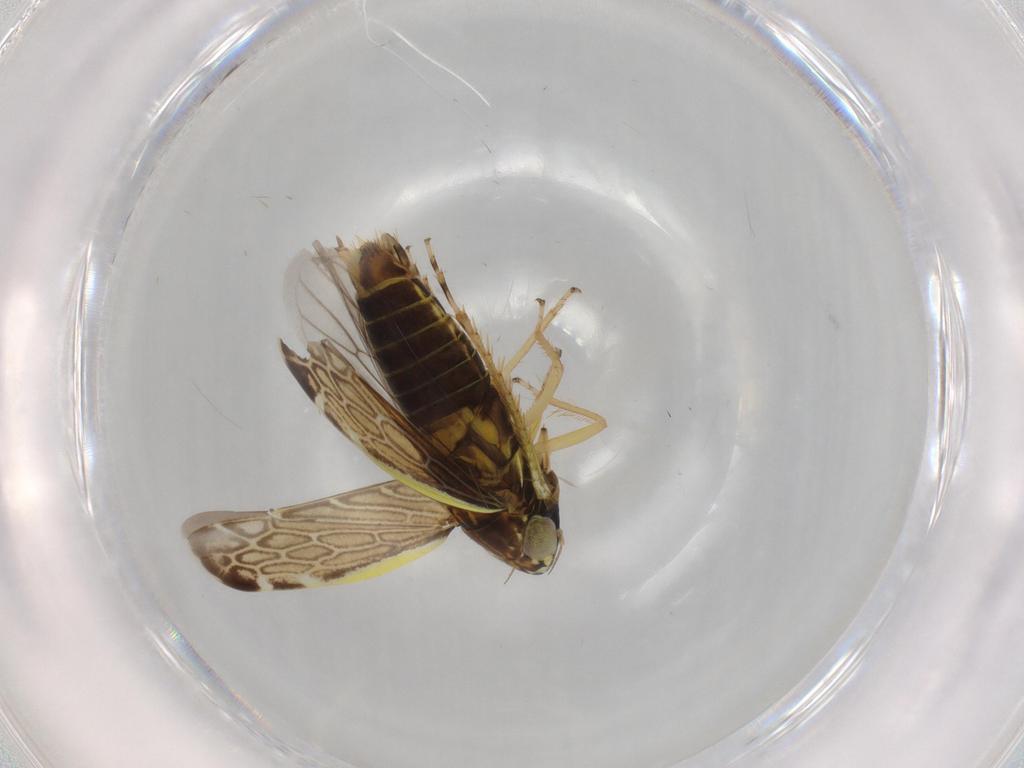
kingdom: Animalia
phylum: Arthropoda
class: Insecta
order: Hemiptera
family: Cicadellidae
